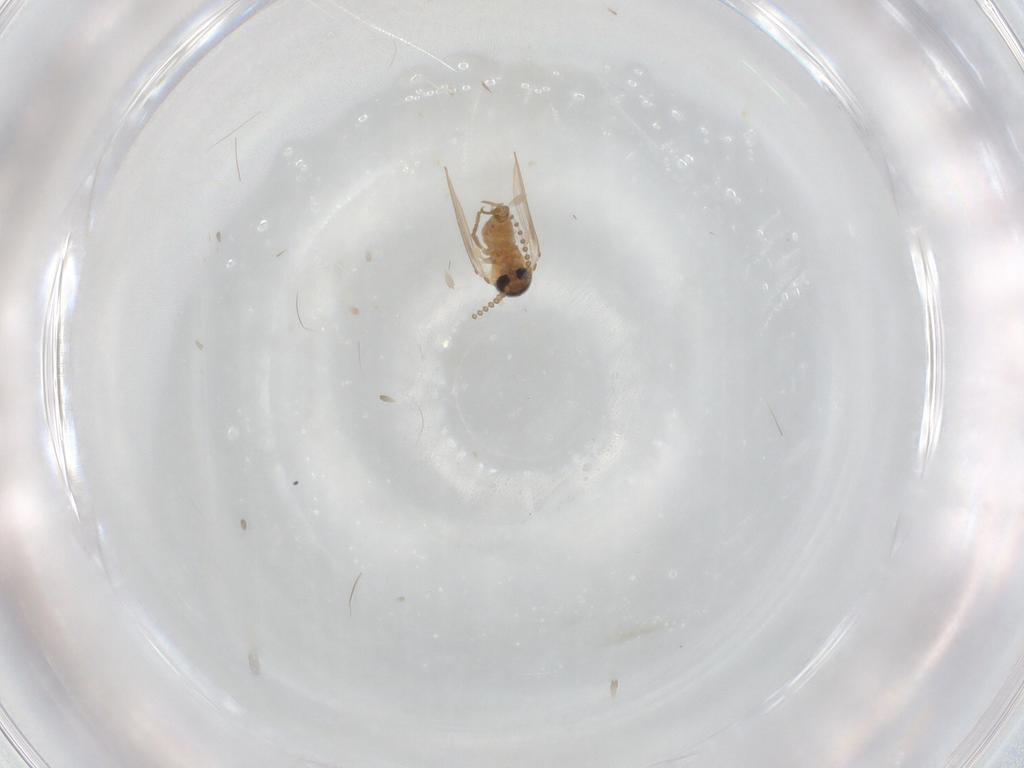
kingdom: Animalia
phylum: Arthropoda
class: Insecta
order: Diptera
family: Psychodidae
